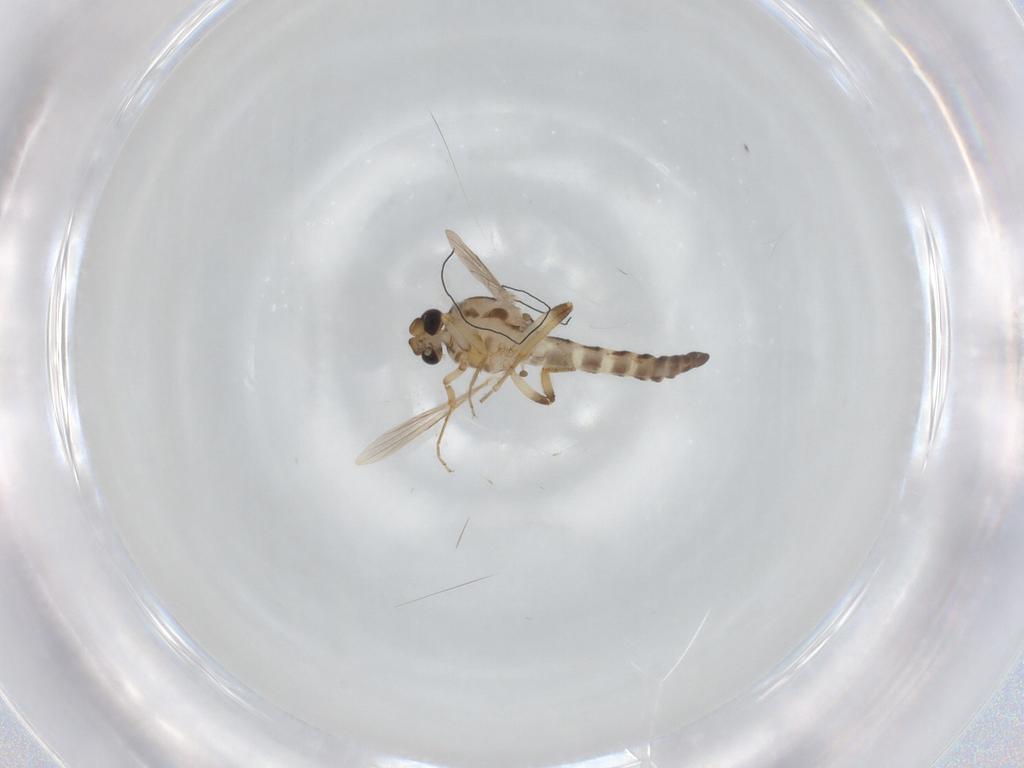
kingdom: Animalia
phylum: Arthropoda
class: Insecta
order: Diptera
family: Ceratopogonidae
